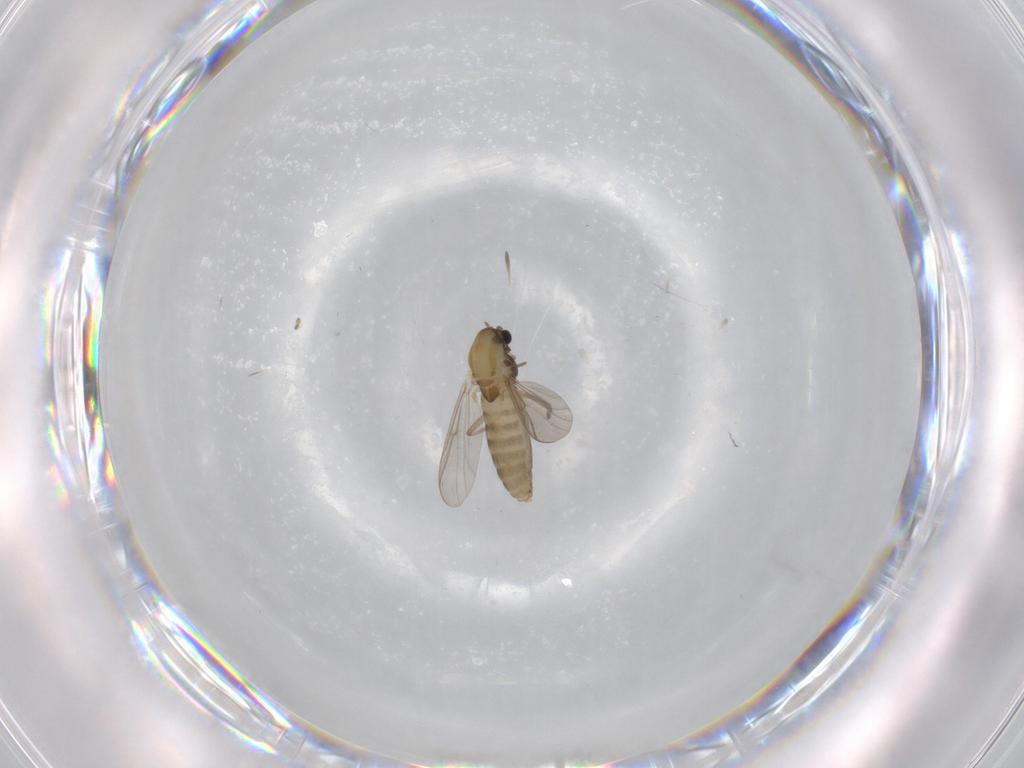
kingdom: Animalia
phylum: Arthropoda
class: Insecta
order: Diptera
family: Chironomidae
